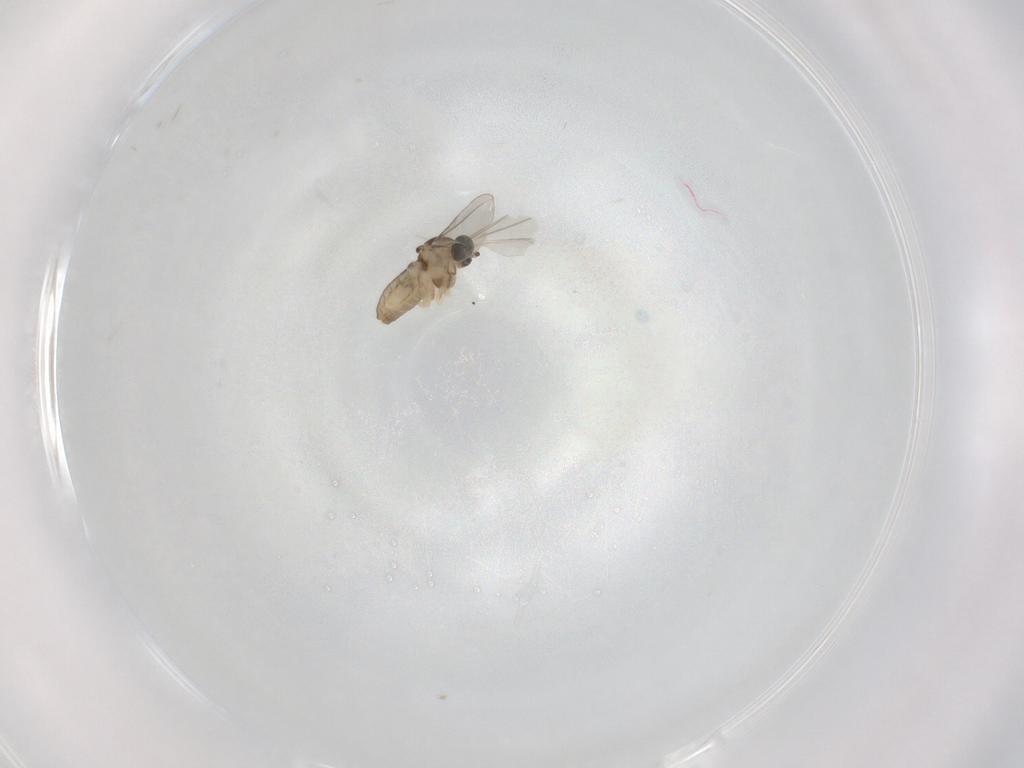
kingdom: Animalia
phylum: Arthropoda
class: Insecta
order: Diptera
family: Cecidomyiidae
